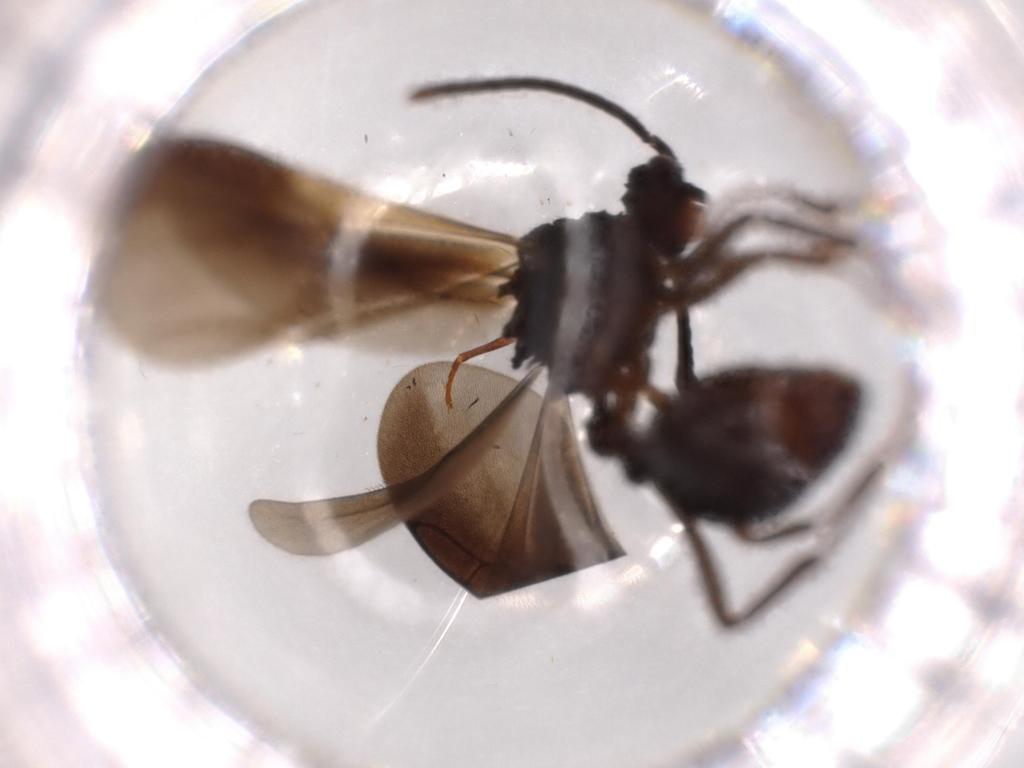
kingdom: Animalia
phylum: Arthropoda
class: Insecta
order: Hymenoptera
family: Formicidae
